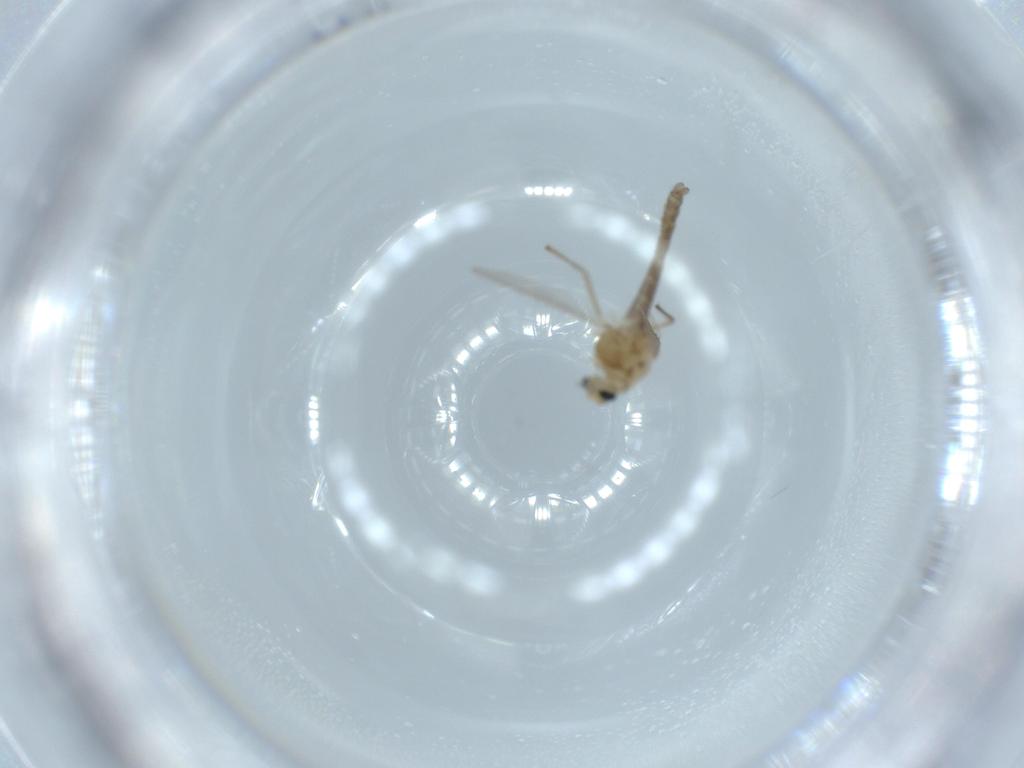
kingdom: Animalia
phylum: Arthropoda
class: Insecta
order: Diptera
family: Chironomidae
